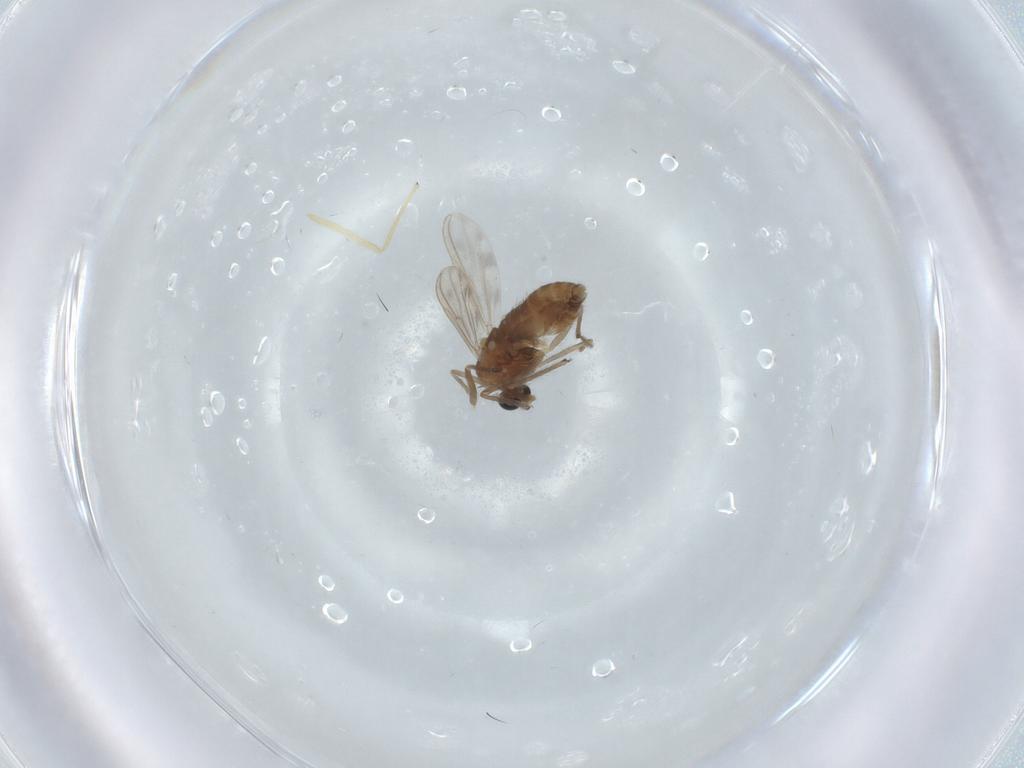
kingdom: Animalia
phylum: Arthropoda
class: Insecta
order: Diptera
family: Chironomidae
